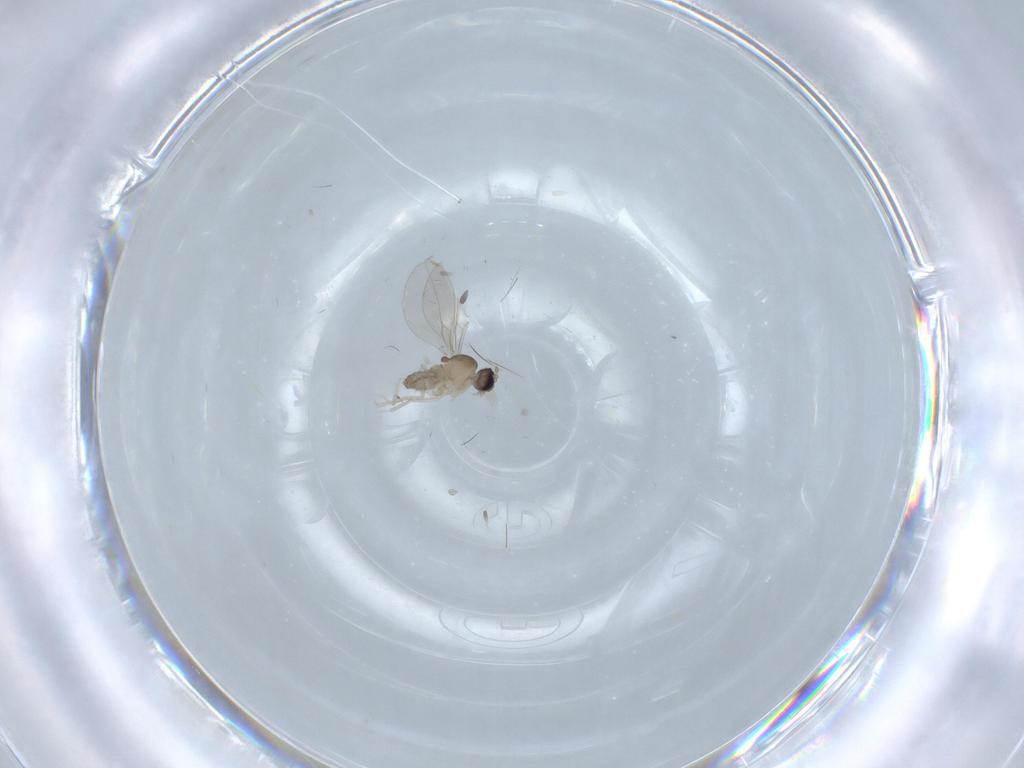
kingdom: Animalia
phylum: Arthropoda
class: Insecta
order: Diptera
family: Cecidomyiidae
